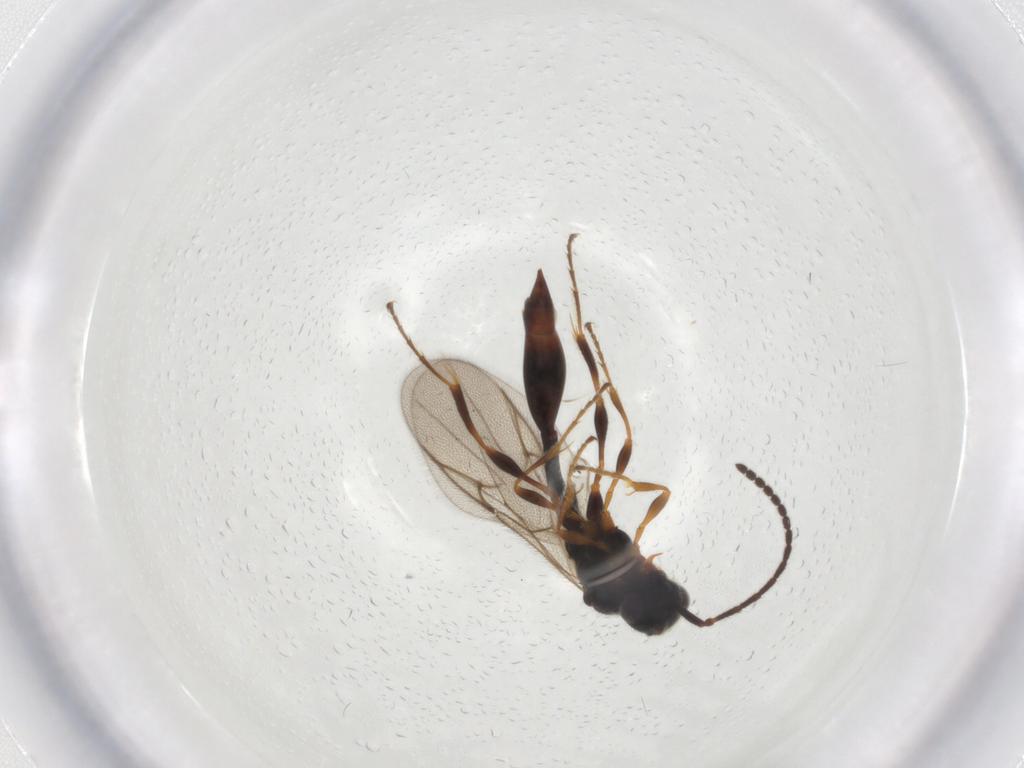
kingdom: Animalia
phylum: Arthropoda
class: Insecta
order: Hymenoptera
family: Diapriidae
